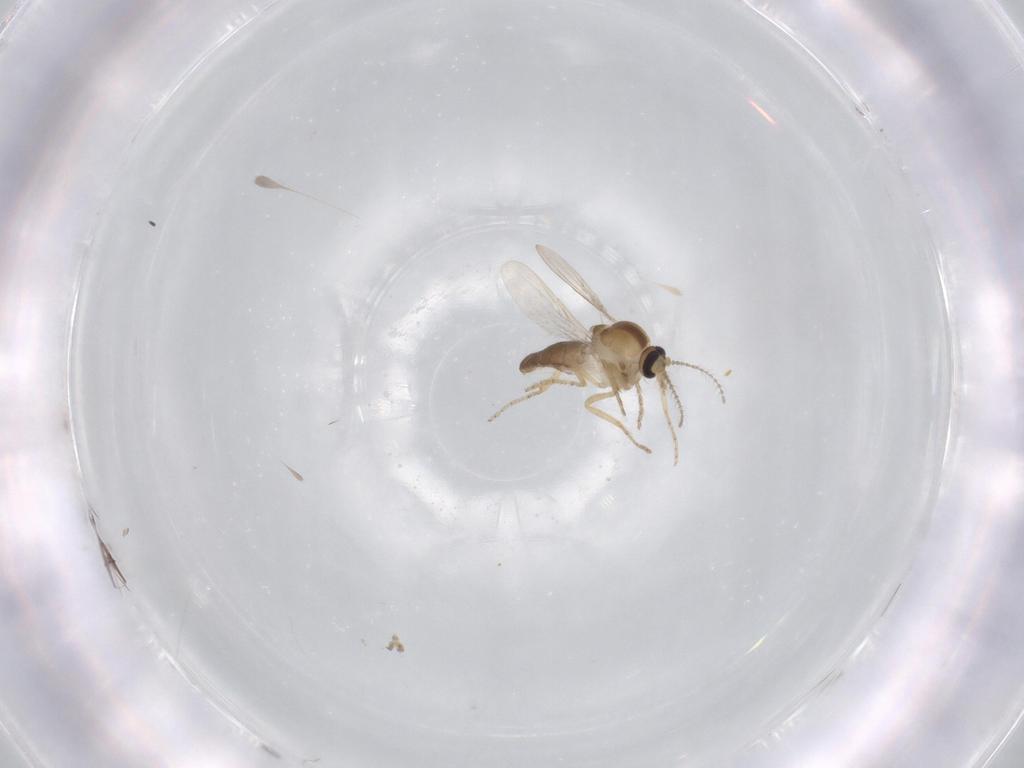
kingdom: Animalia
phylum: Arthropoda
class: Insecta
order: Diptera
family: Ceratopogonidae
